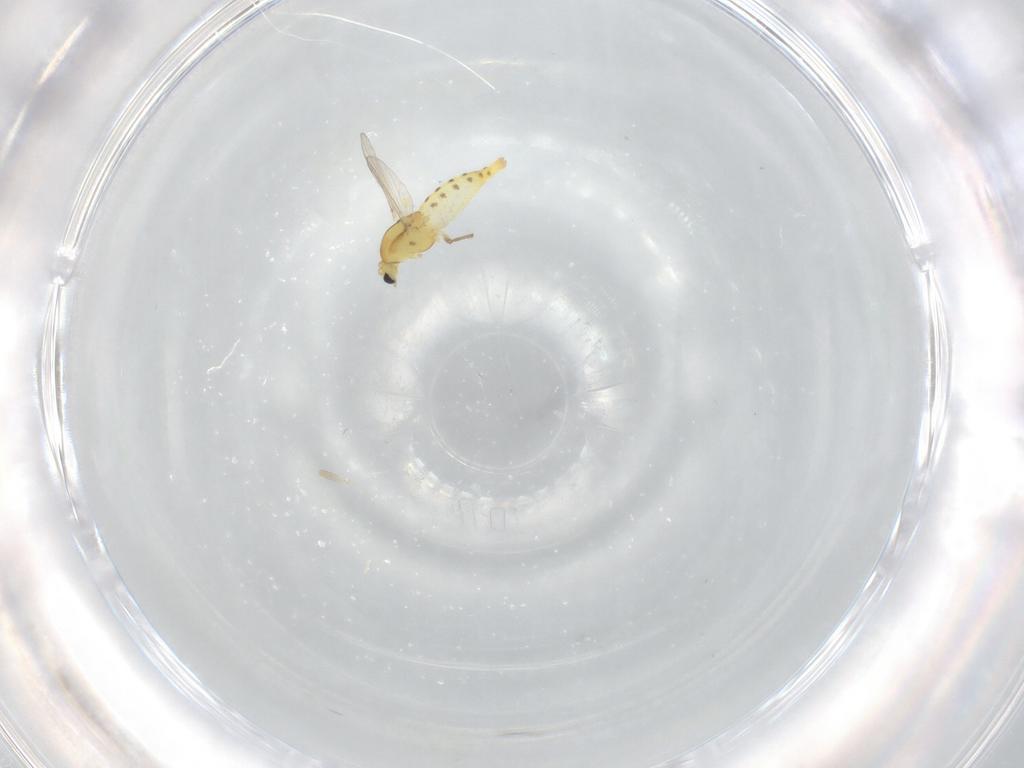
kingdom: Animalia
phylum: Arthropoda
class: Insecta
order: Diptera
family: Chironomidae
